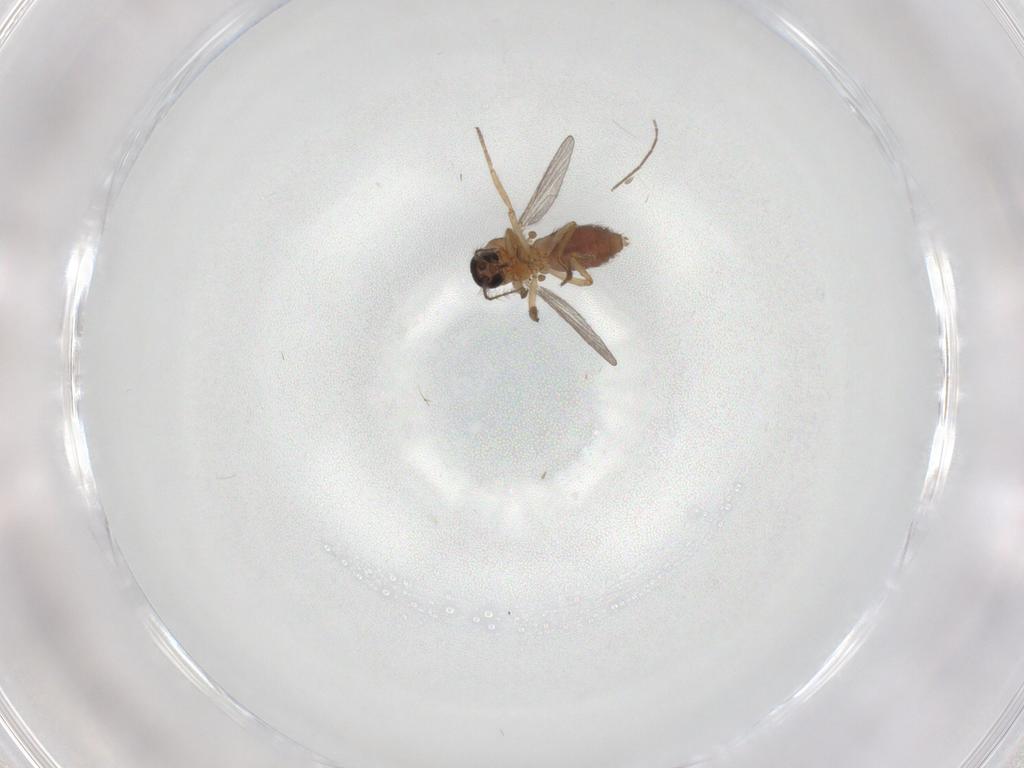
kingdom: Animalia
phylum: Arthropoda
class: Insecta
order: Diptera
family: Ceratopogonidae
